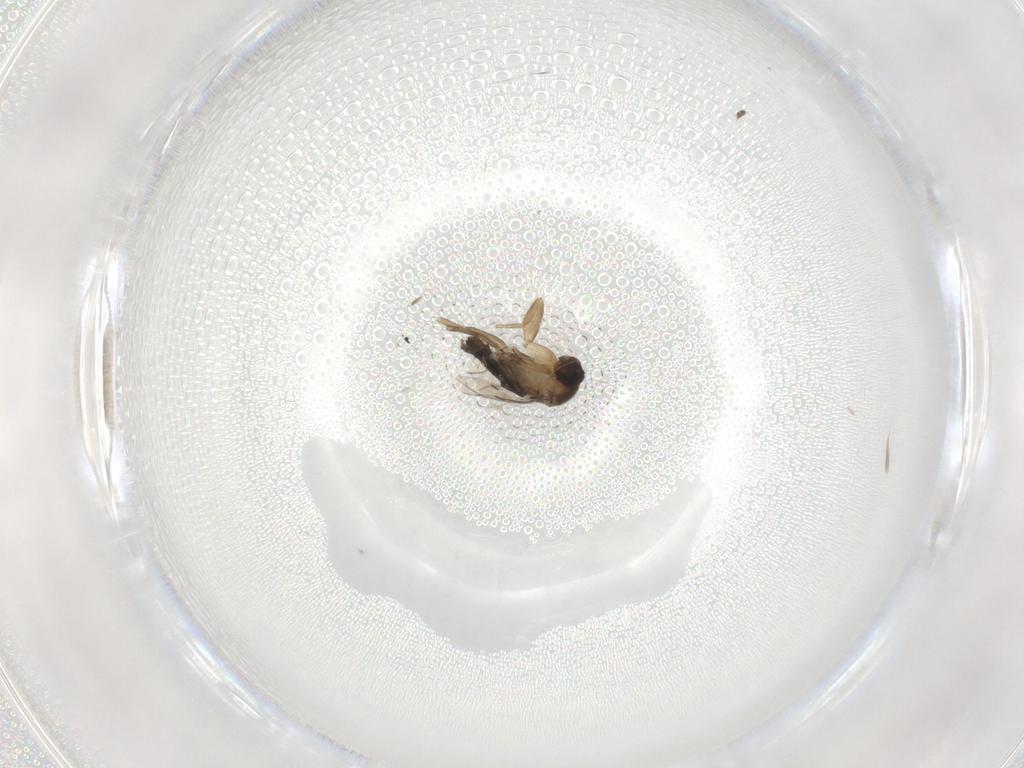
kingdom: Animalia
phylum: Arthropoda
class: Insecta
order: Diptera
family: Phoridae
